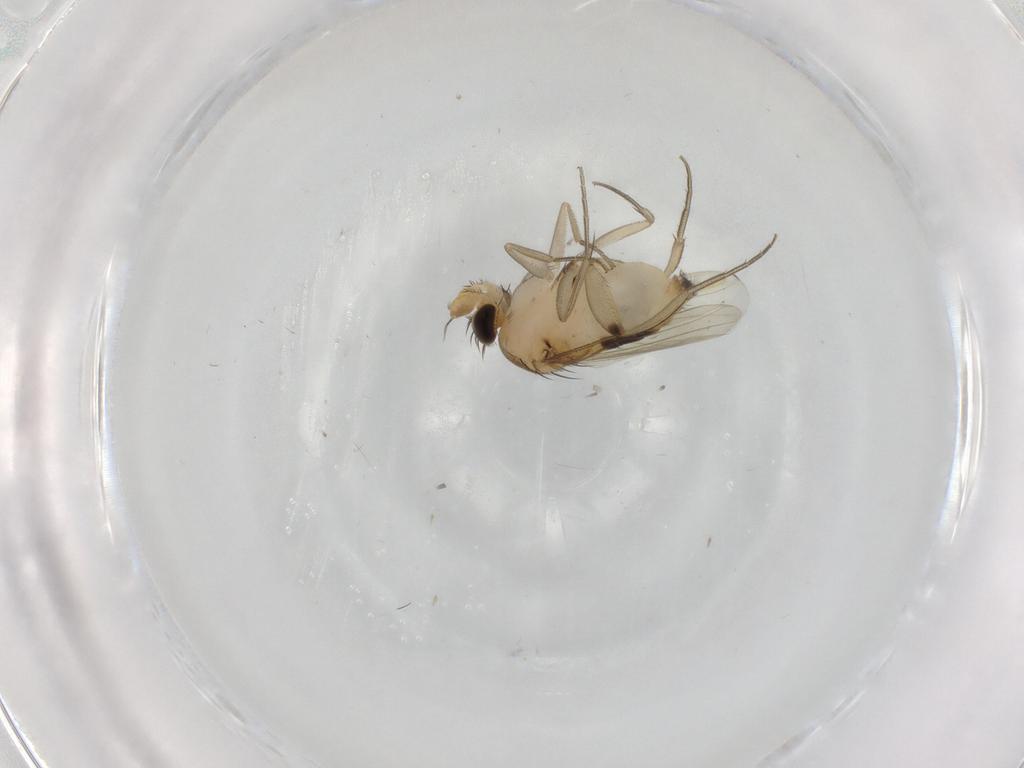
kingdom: Animalia
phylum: Arthropoda
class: Insecta
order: Diptera
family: Phoridae
